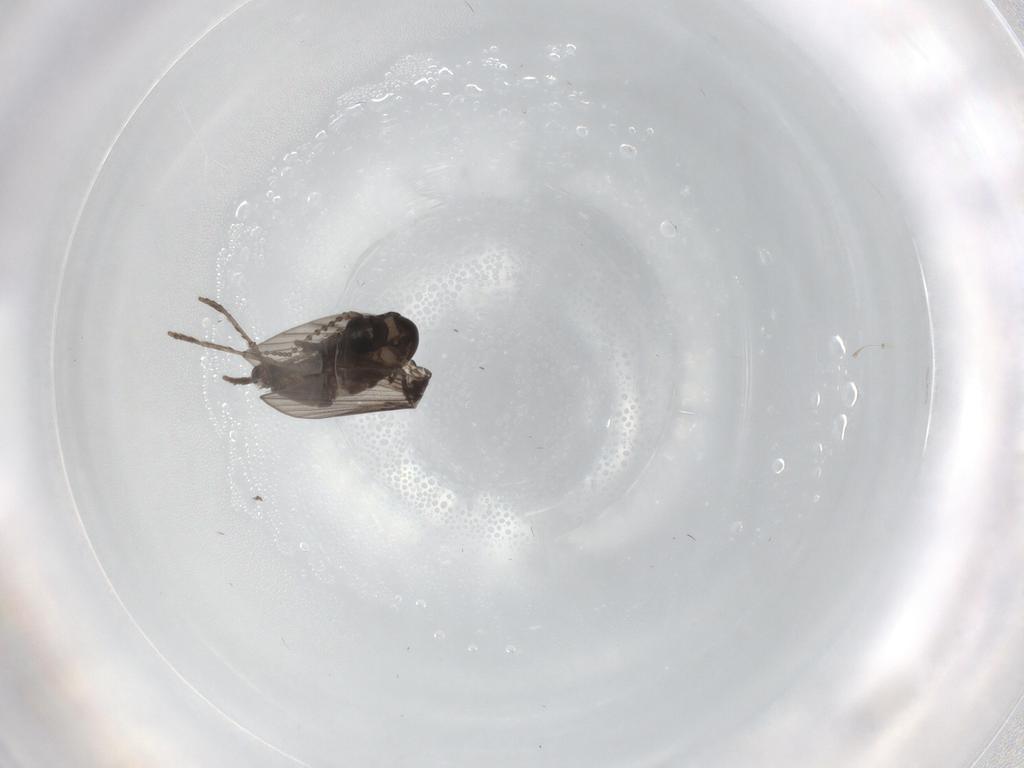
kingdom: Animalia
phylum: Arthropoda
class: Insecta
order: Diptera
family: Psychodidae
